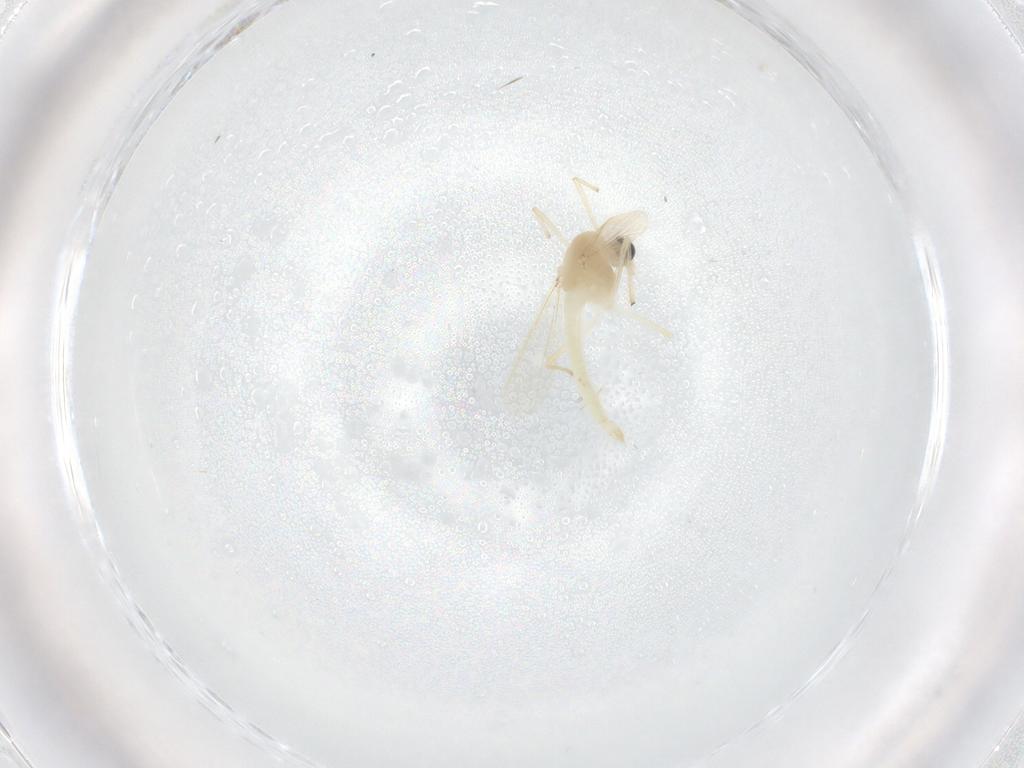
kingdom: Animalia
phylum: Arthropoda
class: Insecta
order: Diptera
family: Chironomidae
